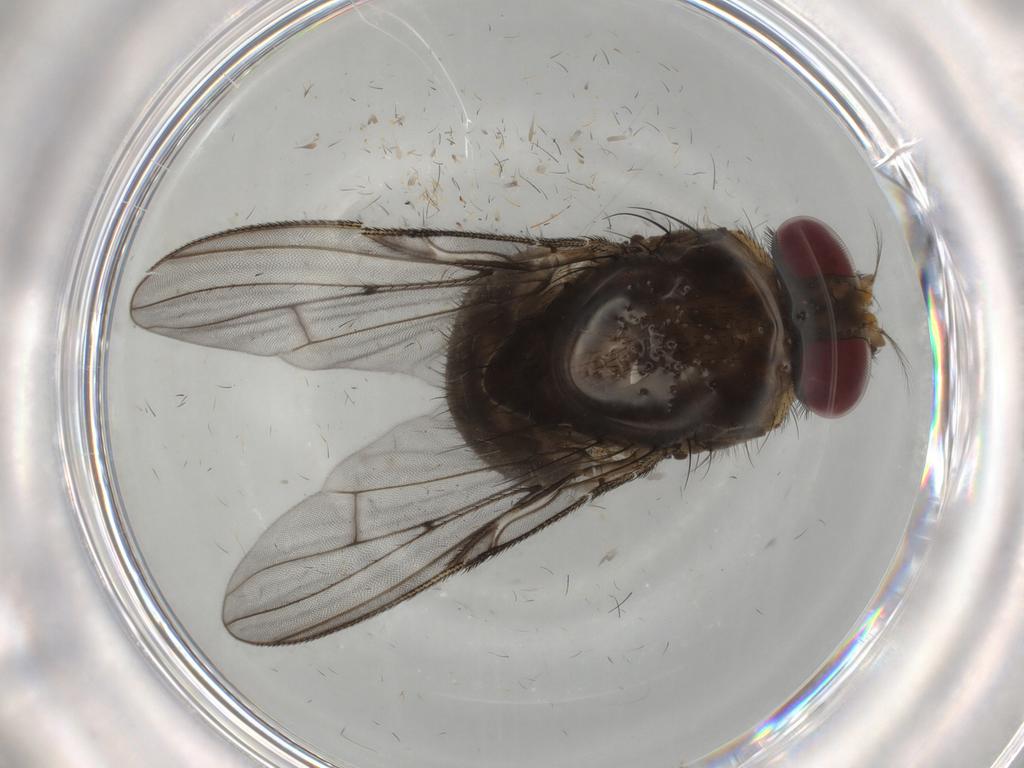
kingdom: Animalia
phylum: Arthropoda
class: Insecta
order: Diptera
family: Muscidae
